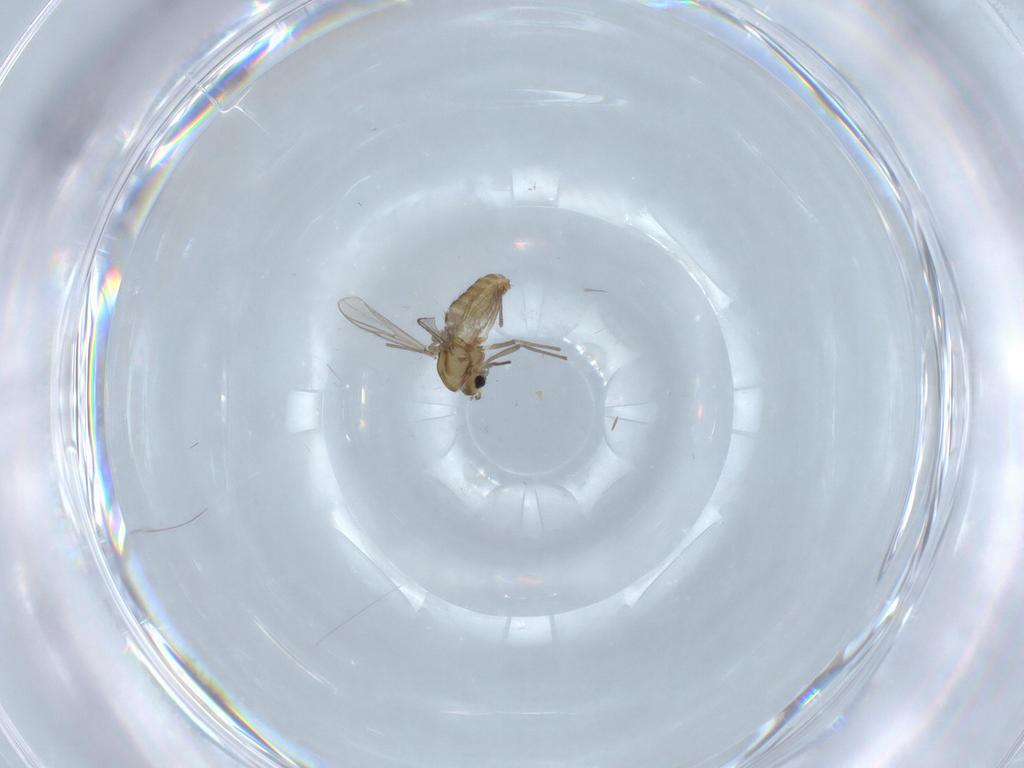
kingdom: Animalia
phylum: Arthropoda
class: Insecta
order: Diptera
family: Chironomidae
